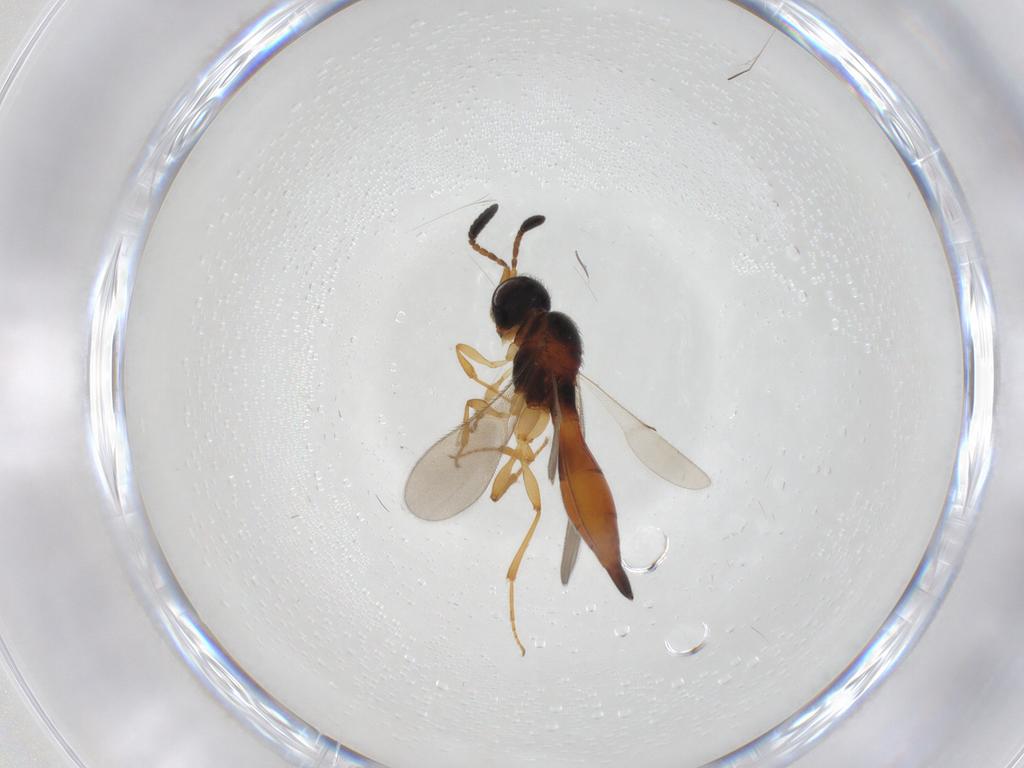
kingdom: Animalia
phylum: Arthropoda
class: Insecta
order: Hymenoptera
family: Scelionidae
